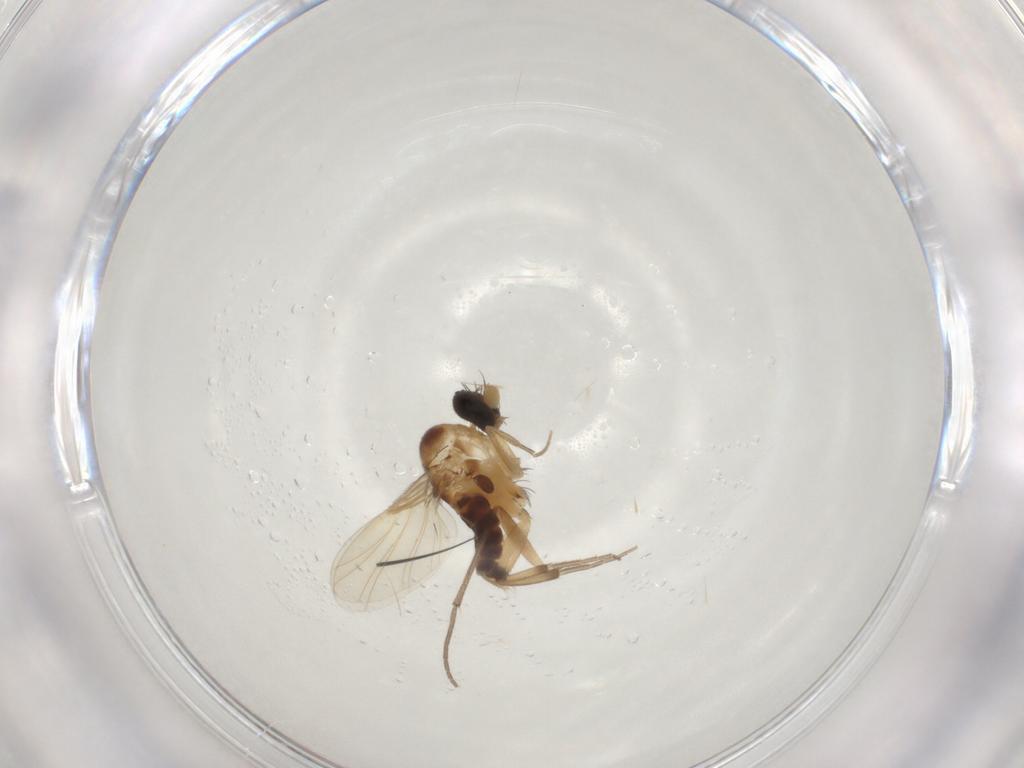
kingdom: Animalia
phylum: Arthropoda
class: Insecta
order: Diptera
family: Phoridae
